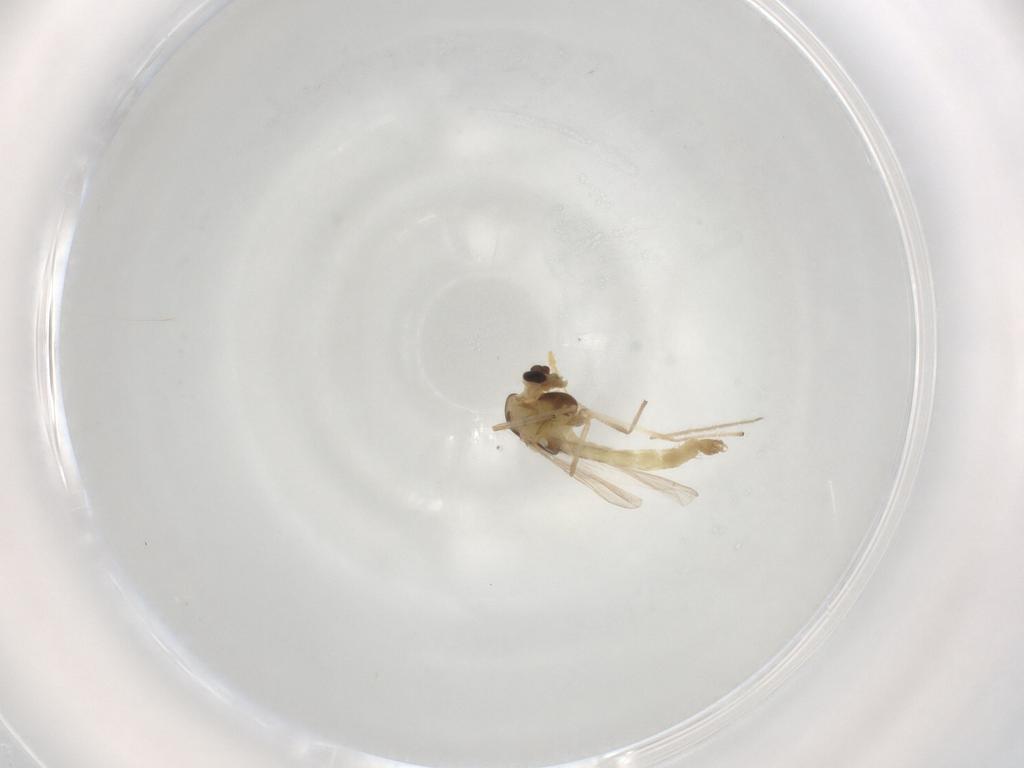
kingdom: Animalia
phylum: Arthropoda
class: Insecta
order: Diptera
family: Chironomidae
